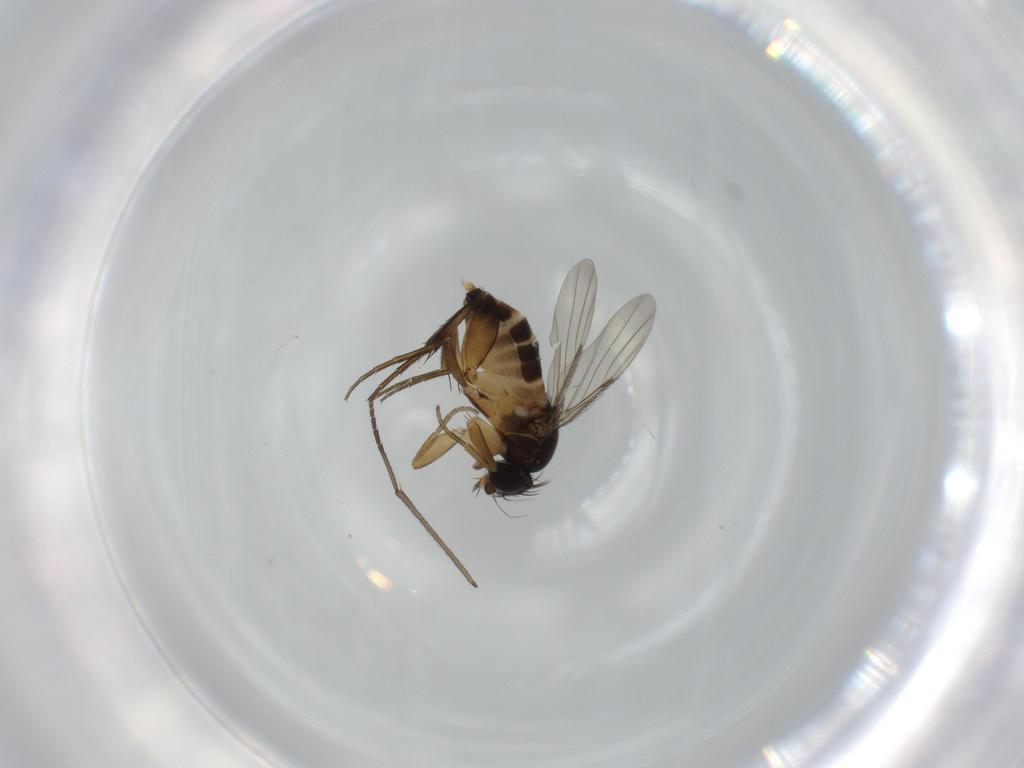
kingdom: Animalia
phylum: Arthropoda
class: Insecta
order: Diptera
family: Phoridae
